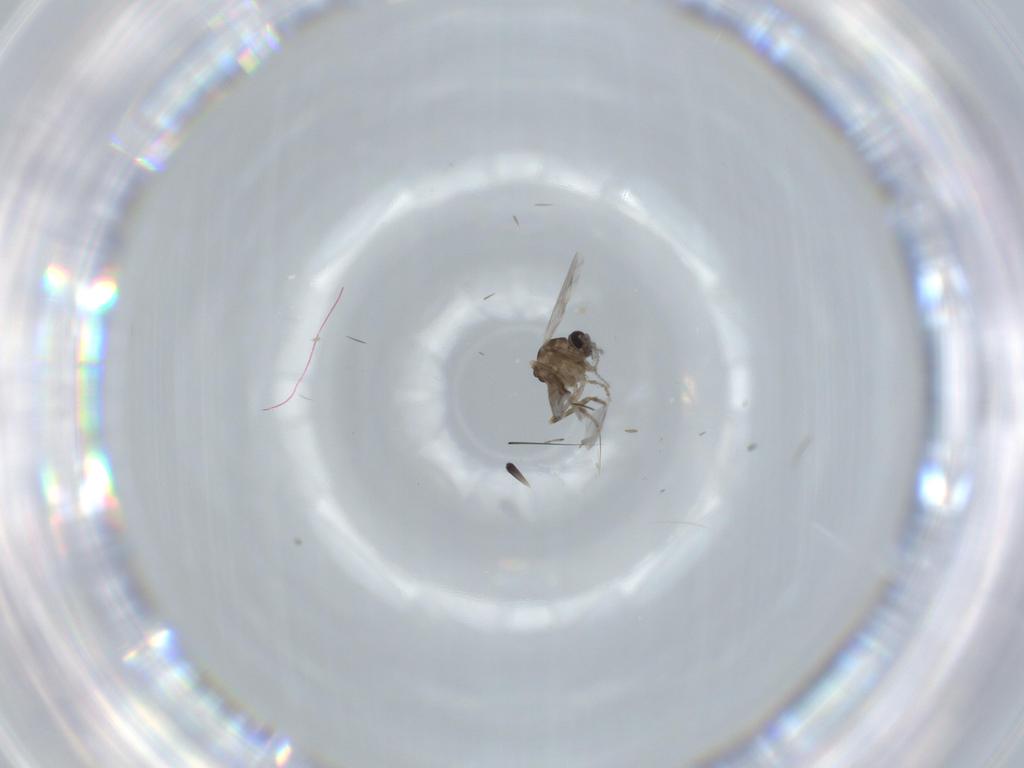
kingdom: Animalia
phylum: Arthropoda
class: Insecta
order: Diptera
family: Ceratopogonidae
